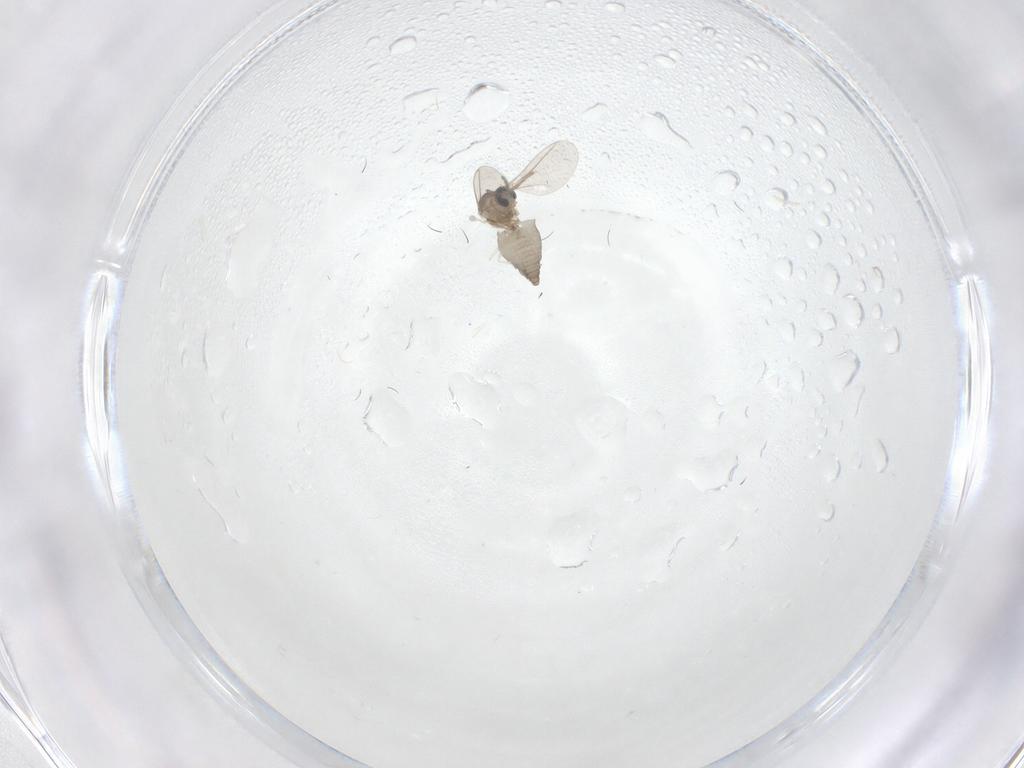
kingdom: Animalia
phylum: Arthropoda
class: Insecta
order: Diptera
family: Cecidomyiidae
